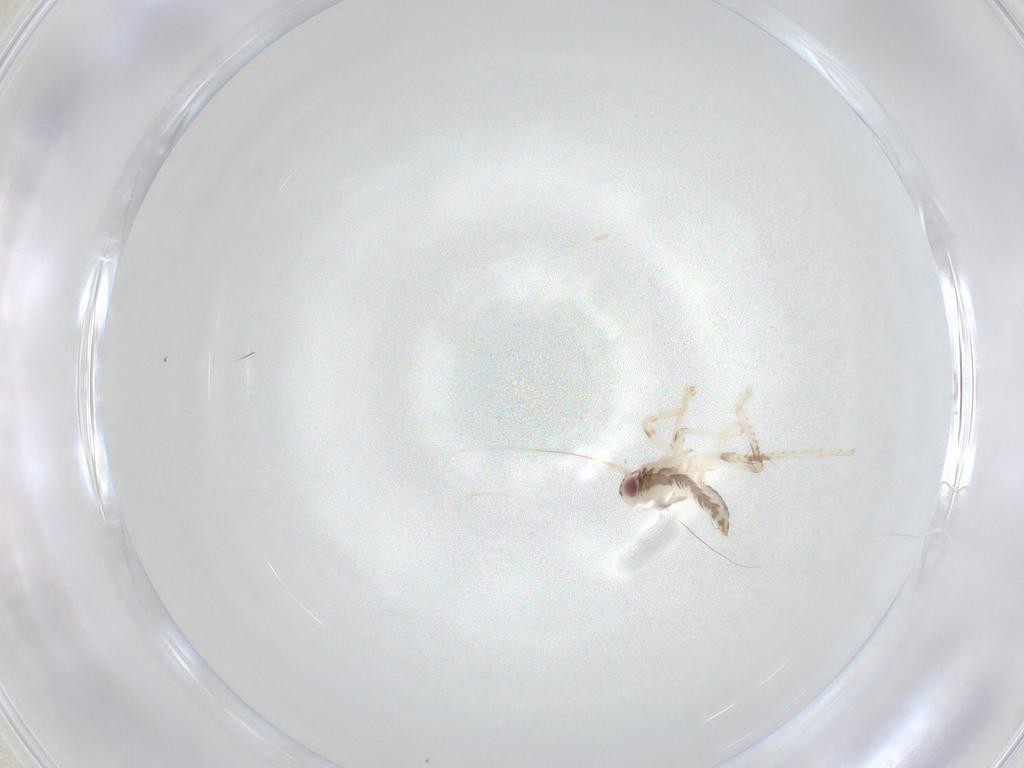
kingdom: Animalia
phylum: Arthropoda
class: Insecta
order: Hemiptera
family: Cicadellidae
